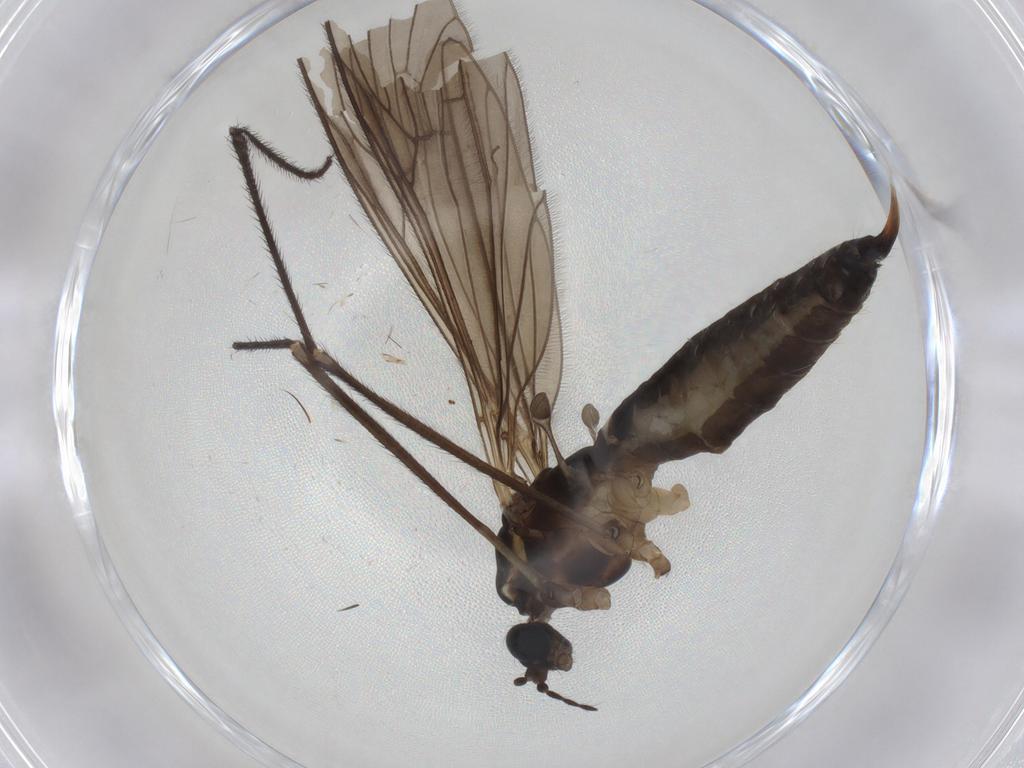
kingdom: Animalia
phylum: Arthropoda
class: Insecta
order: Diptera
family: Limoniidae
